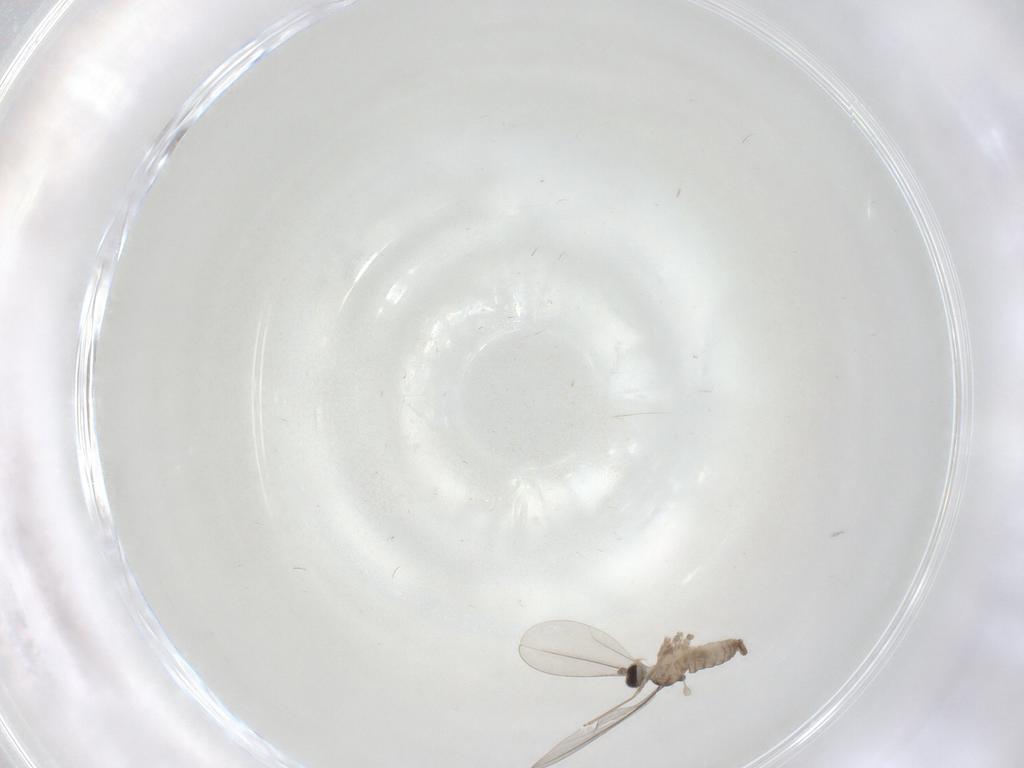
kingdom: Animalia
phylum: Arthropoda
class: Insecta
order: Diptera
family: Cecidomyiidae
